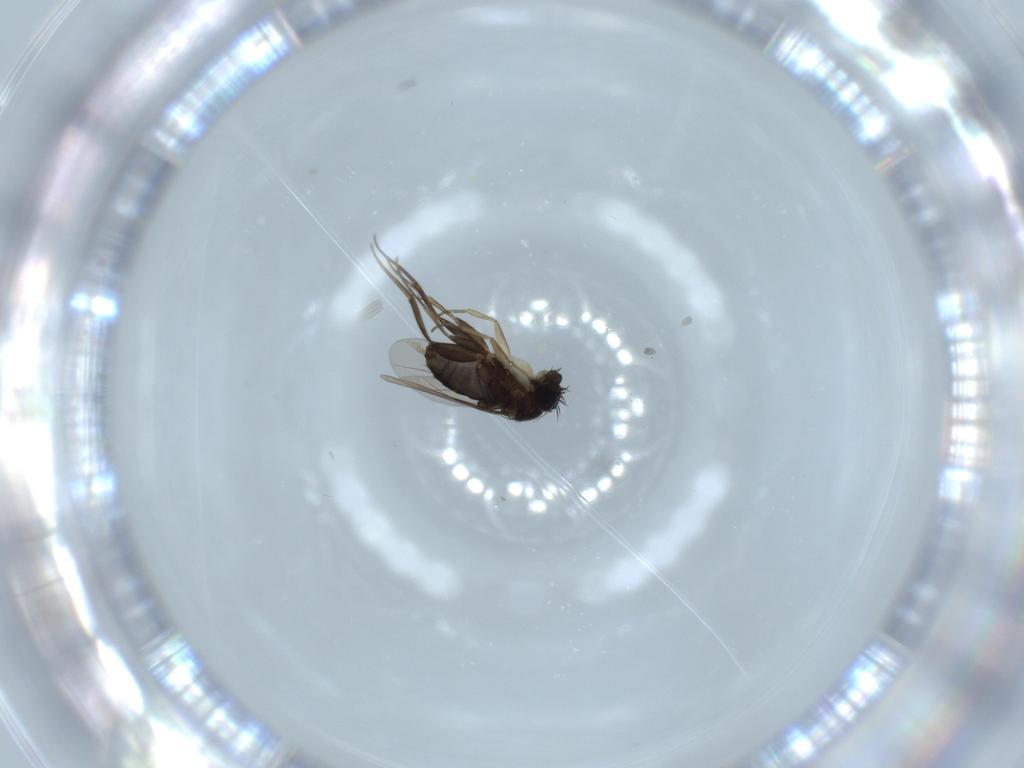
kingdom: Animalia
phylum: Arthropoda
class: Insecta
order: Diptera
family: Phoridae
